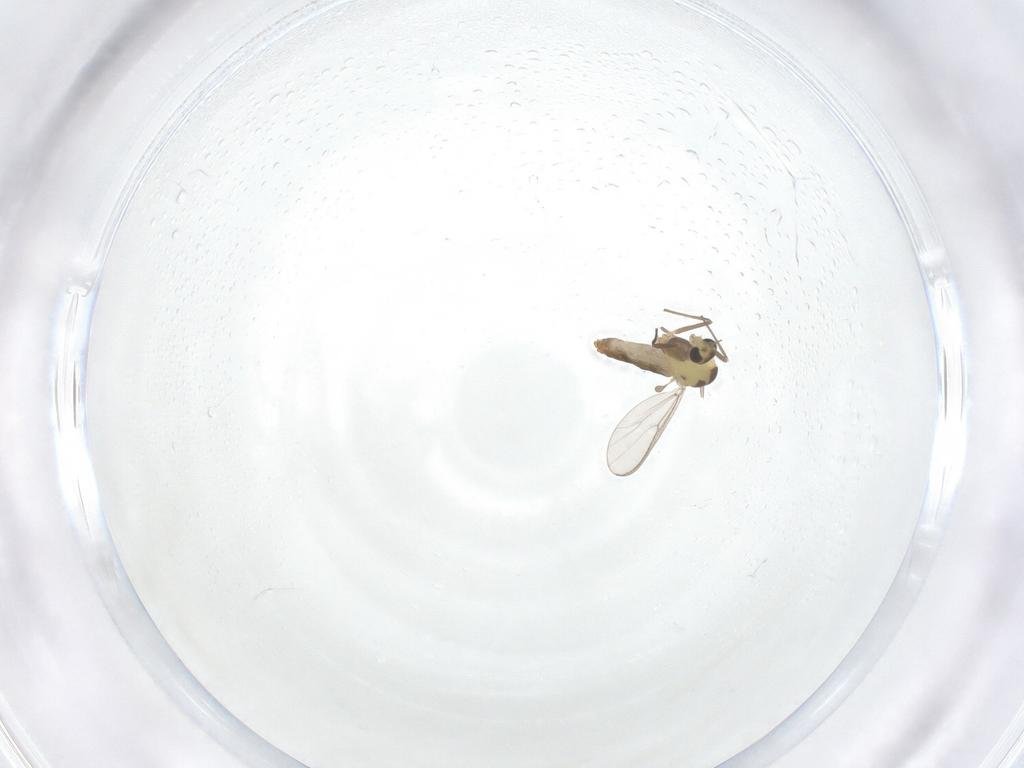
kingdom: Animalia
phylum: Arthropoda
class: Insecta
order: Diptera
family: Chironomidae
